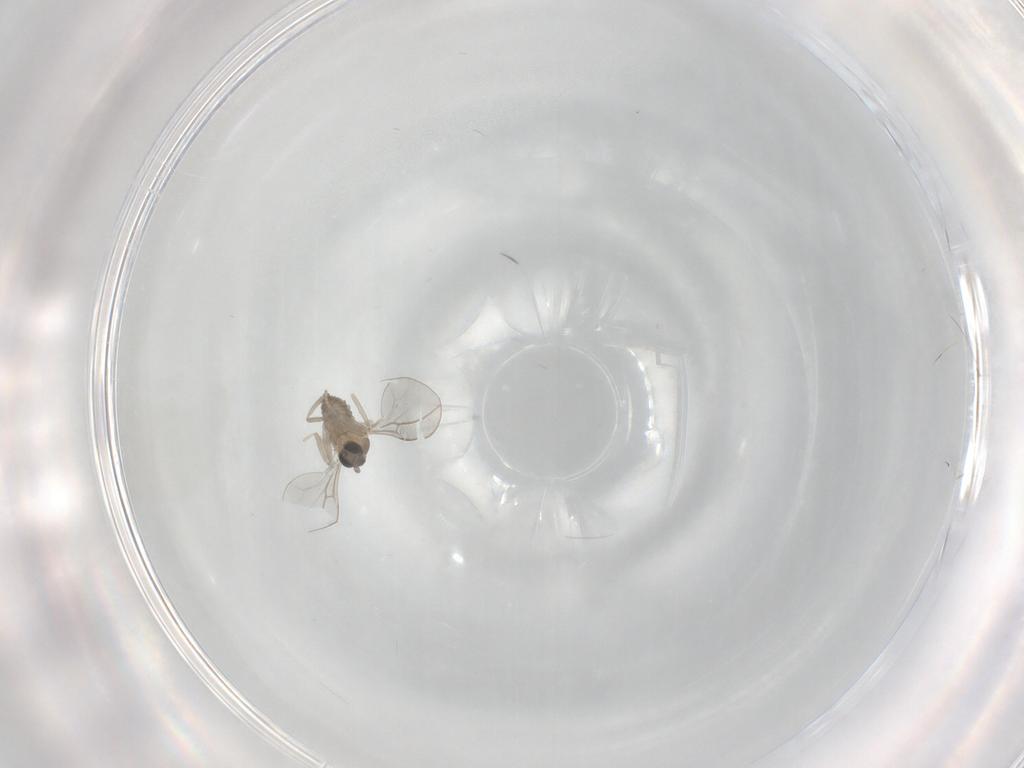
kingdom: Animalia
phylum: Arthropoda
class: Insecta
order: Diptera
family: Cecidomyiidae
